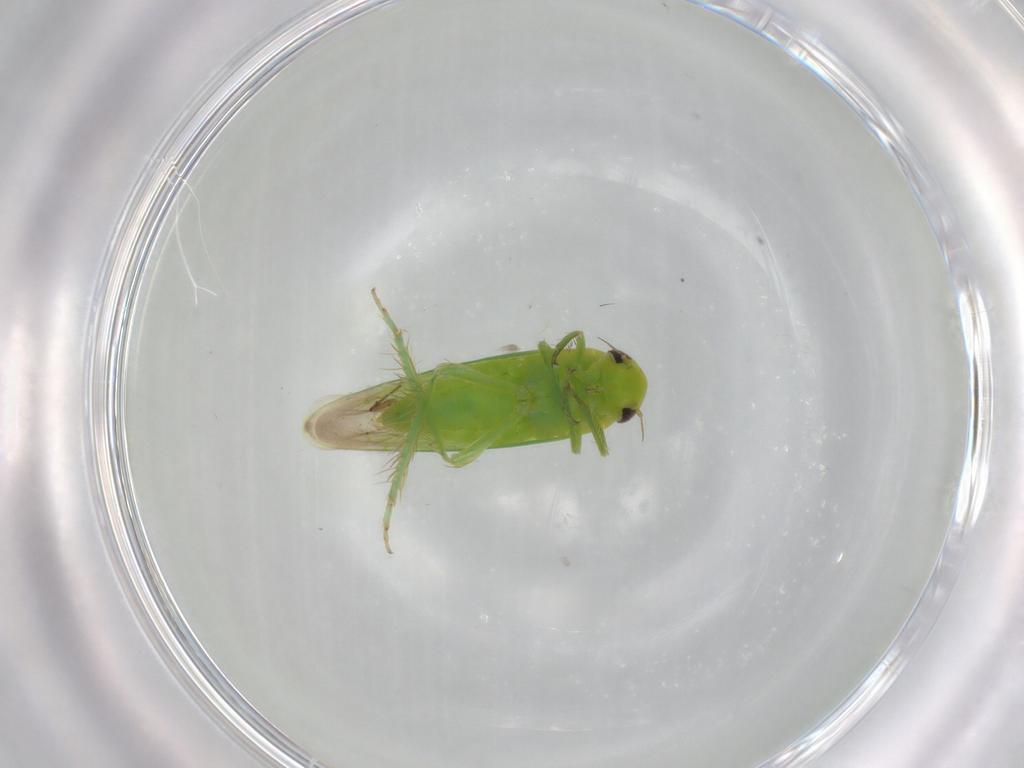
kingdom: Animalia
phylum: Arthropoda
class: Insecta
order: Hemiptera
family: Cicadellidae
